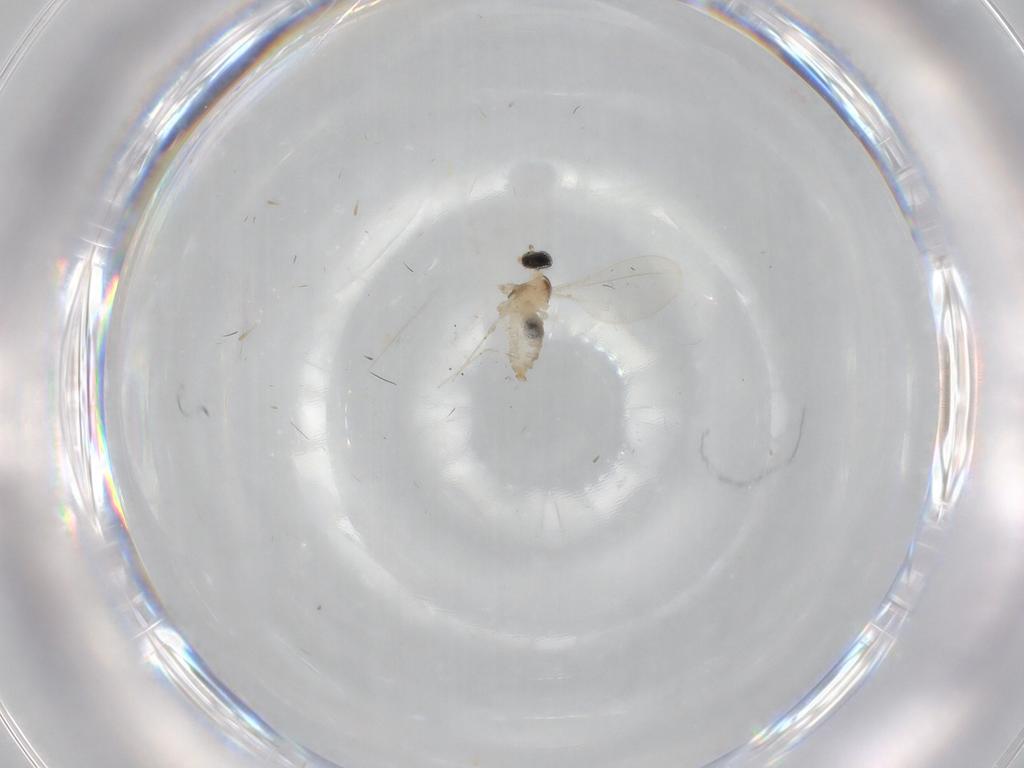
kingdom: Animalia
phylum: Arthropoda
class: Insecta
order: Diptera
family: Cecidomyiidae
